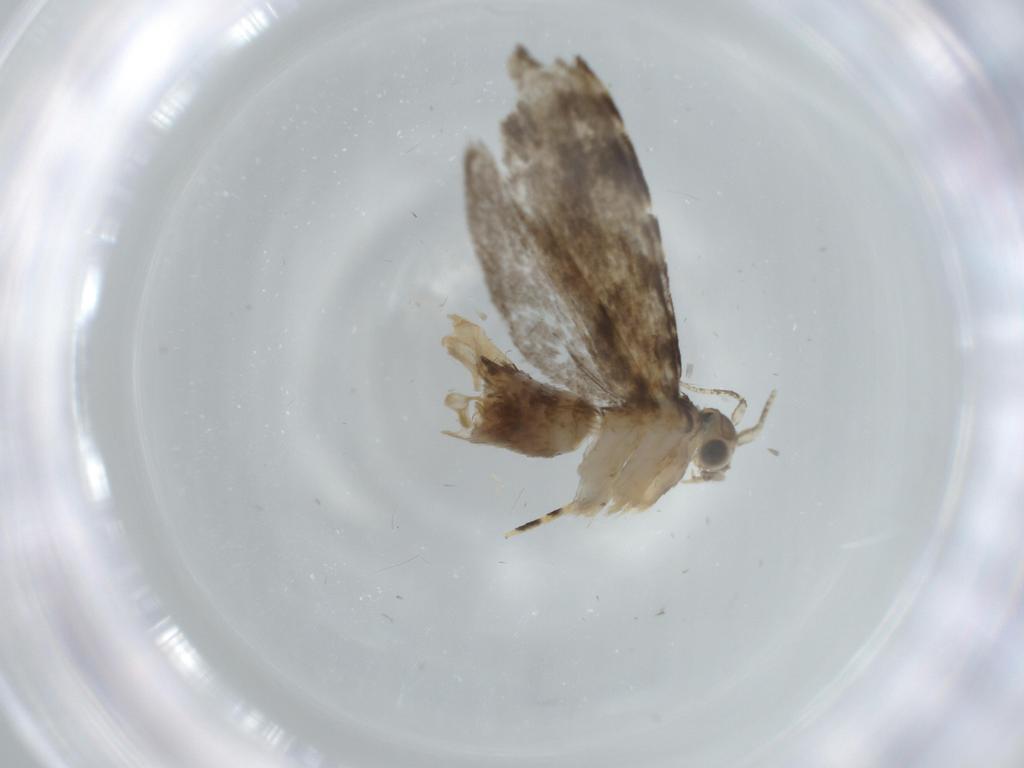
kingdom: Animalia
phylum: Arthropoda
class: Insecta
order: Lepidoptera
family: Tineidae
